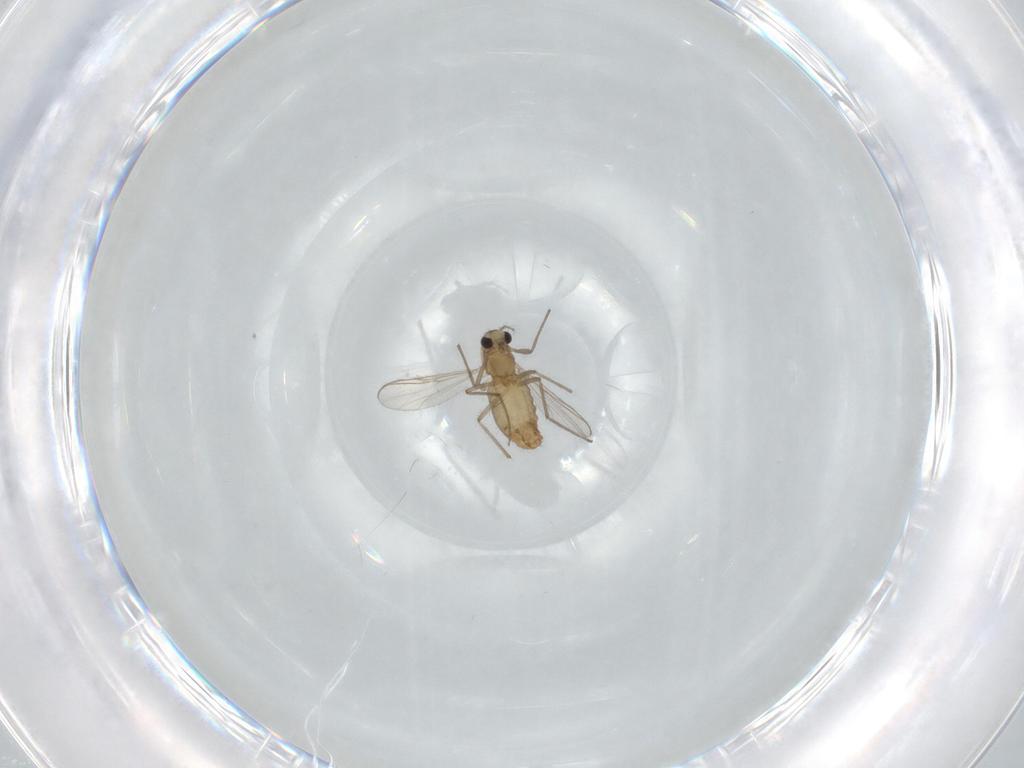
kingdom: Animalia
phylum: Arthropoda
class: Insecta
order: Diptera
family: Chironomidae
